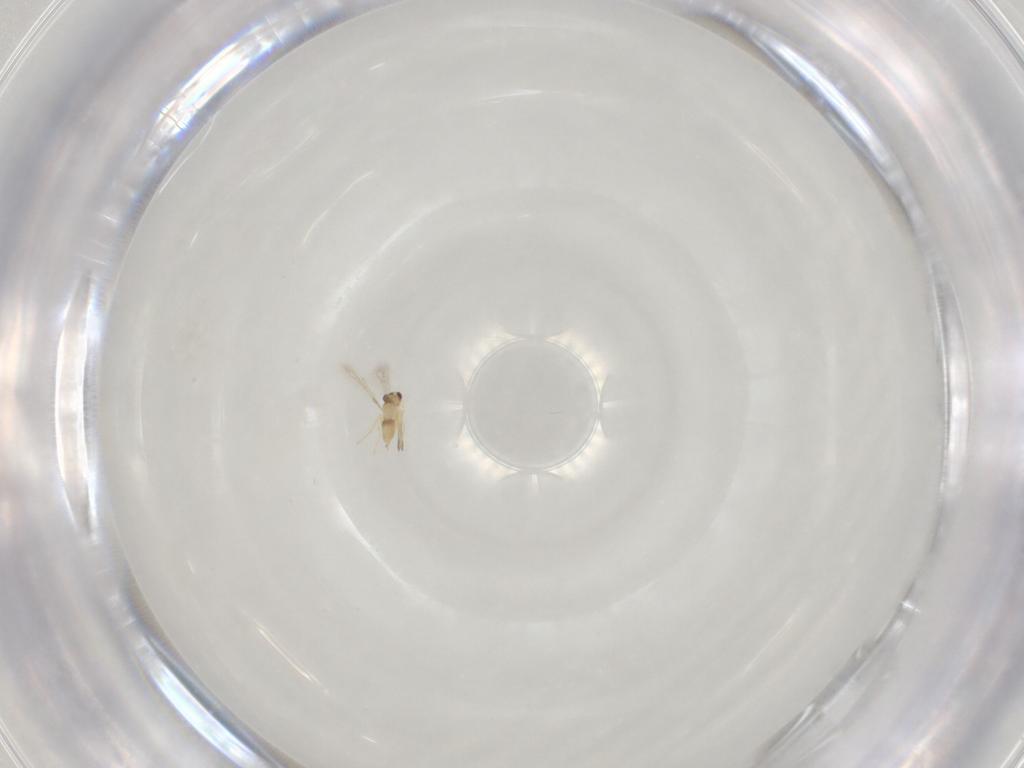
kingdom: Animalia
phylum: Arthropoda
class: Insecta
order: Hymenoptera
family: Mymaridae
